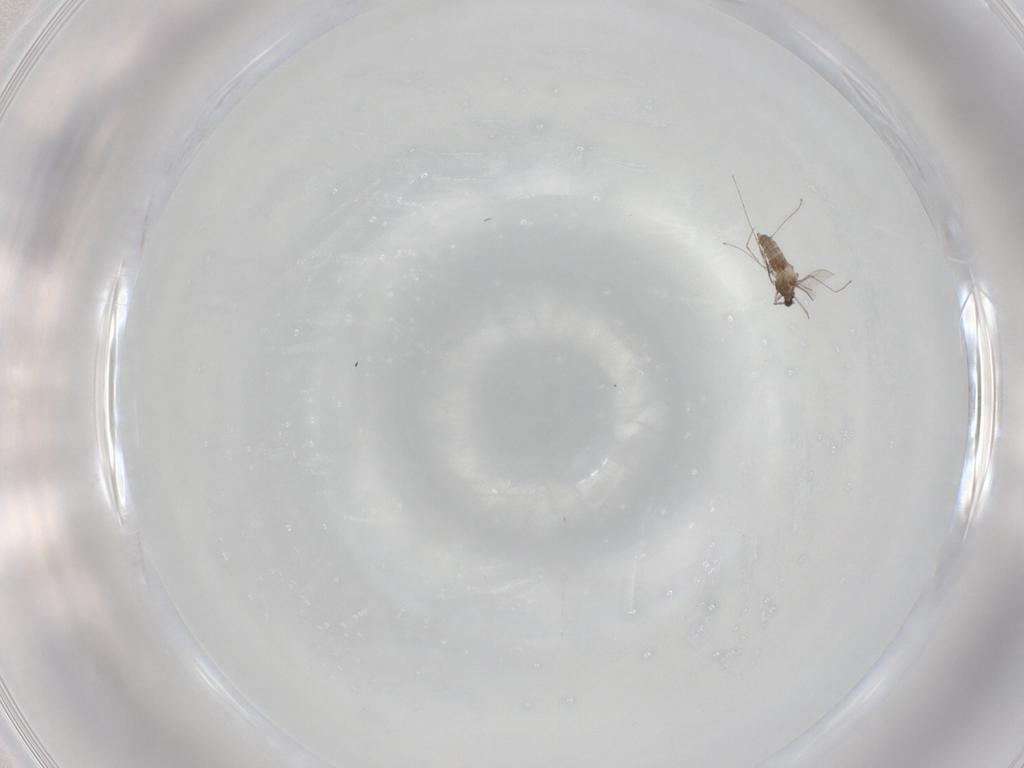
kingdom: Animalia
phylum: Arthropoda
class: Insecta
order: Diptera
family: Cecidomyiidae
